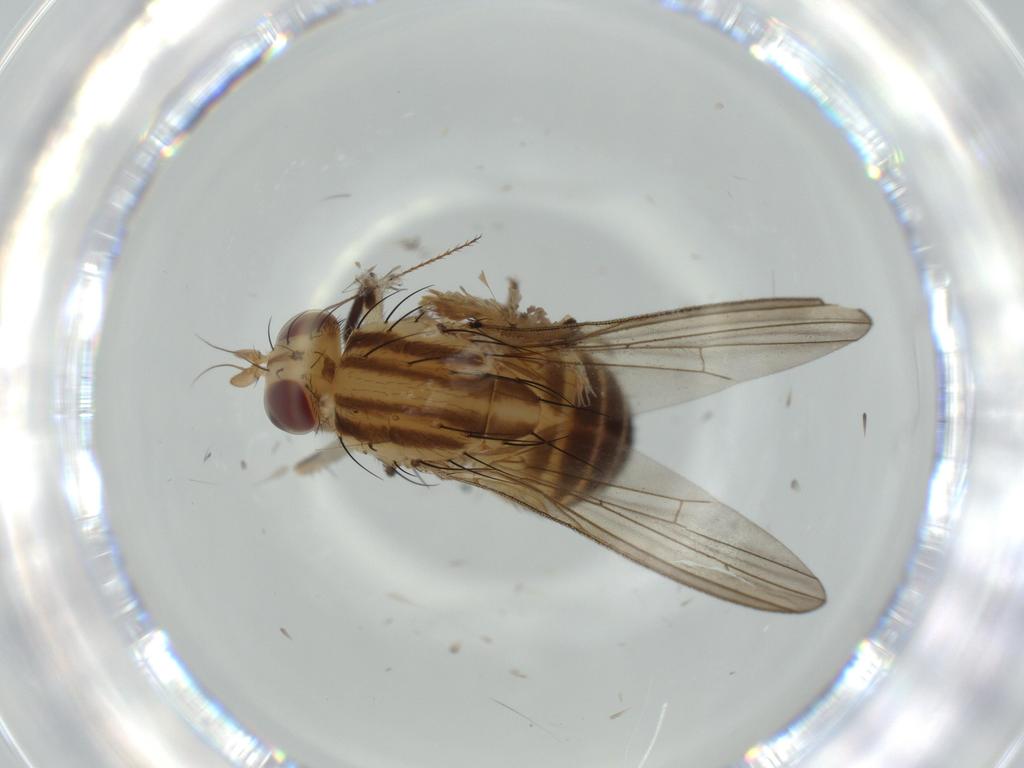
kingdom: Animalia
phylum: Arthropoda
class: Insecta
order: Diptera
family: Lauxaniidae
